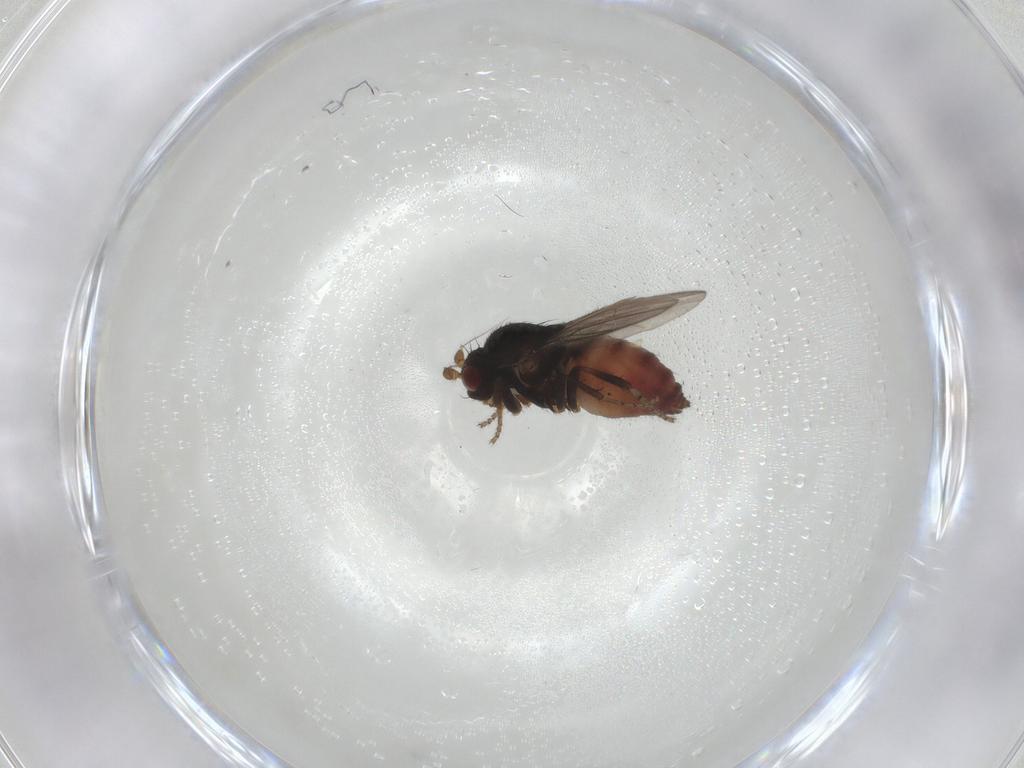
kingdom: Animalia
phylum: Arthropoda
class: Insecta
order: Diptera
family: Sphaeroceridae
